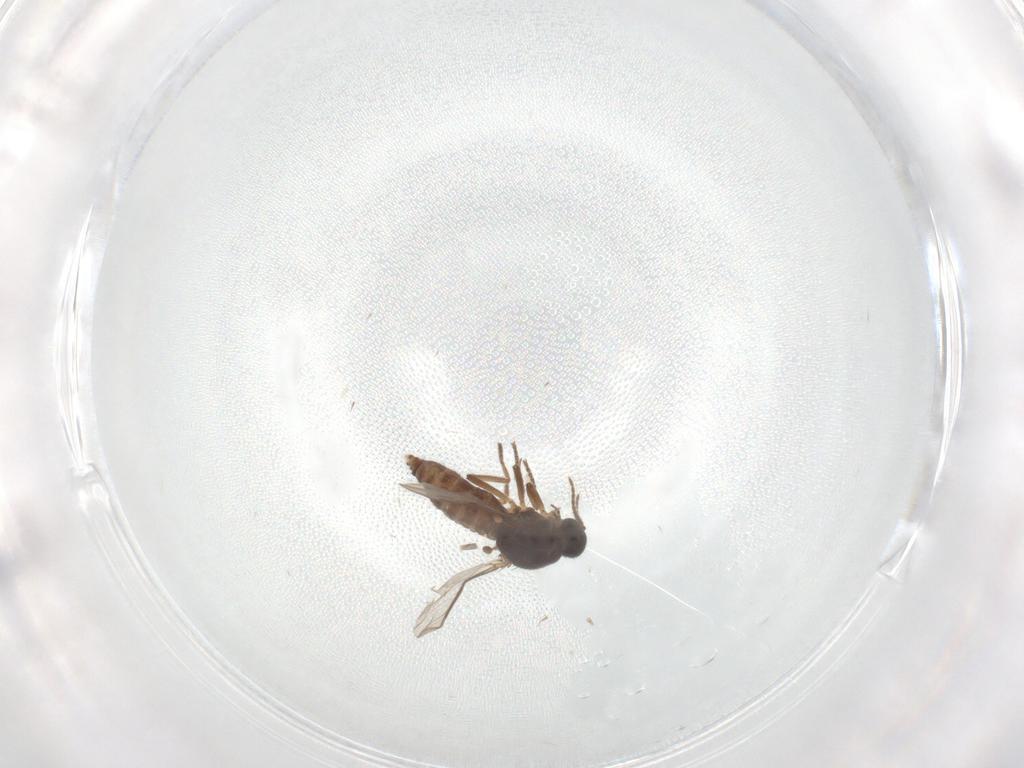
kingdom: Animalia
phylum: Arthropoda
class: Insecta
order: Diptera
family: Ceratopogonidae
